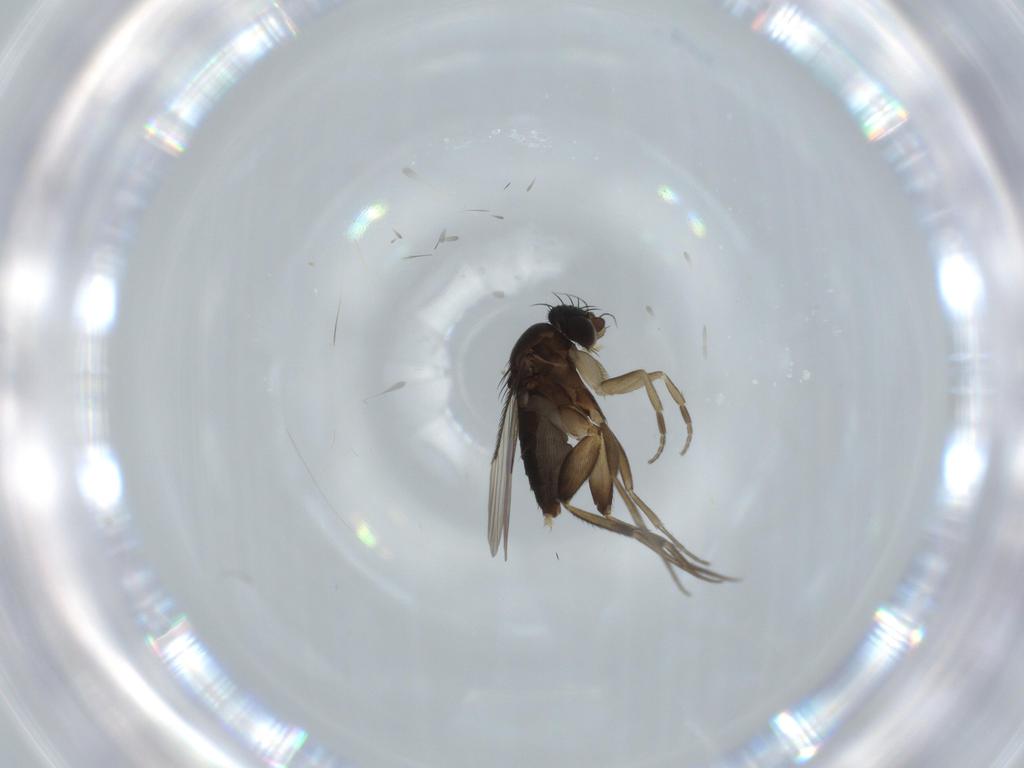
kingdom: Animalia
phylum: Arthropoda
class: Insecta
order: Diptera
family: Phoridae
